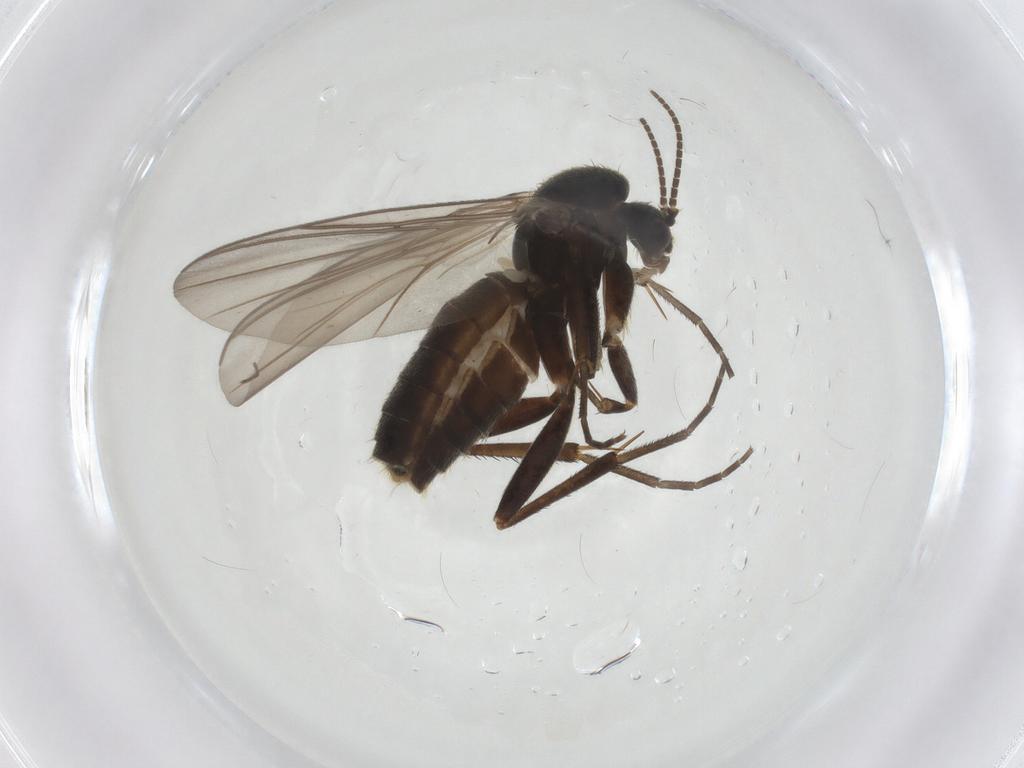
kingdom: Animalia
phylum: Arthropoda
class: Insecta
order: Diptera
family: Mycetophilidae
